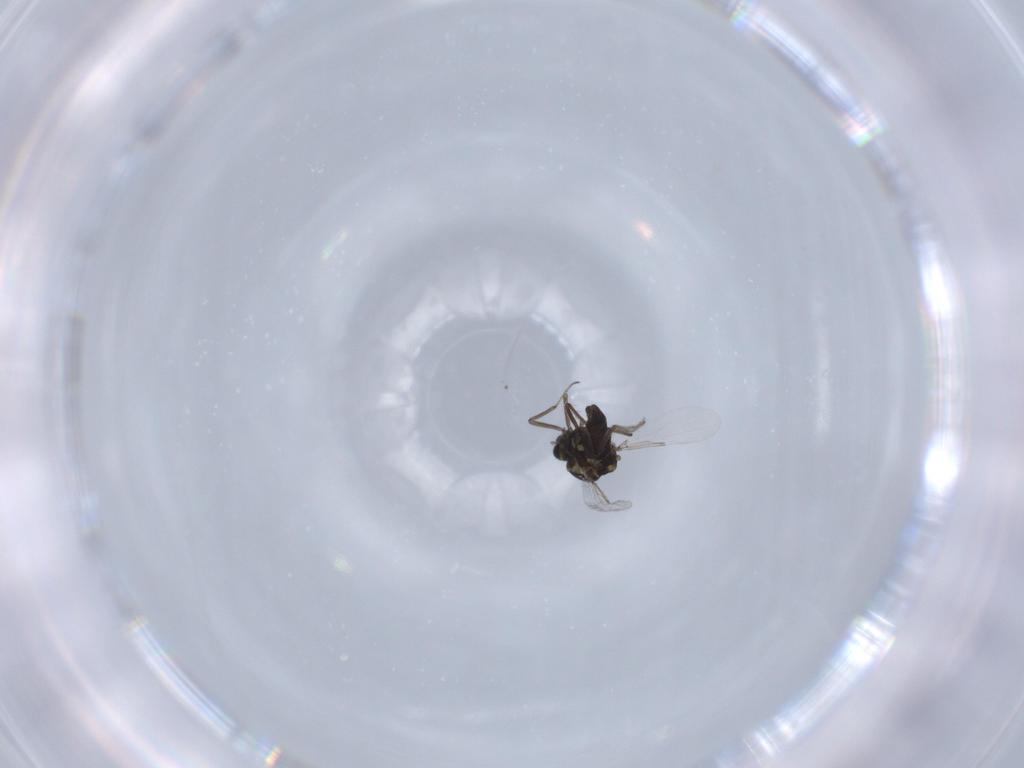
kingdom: Animalia
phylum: Arthropoda
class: Insecta
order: Diptera
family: Ceratopogonidae
